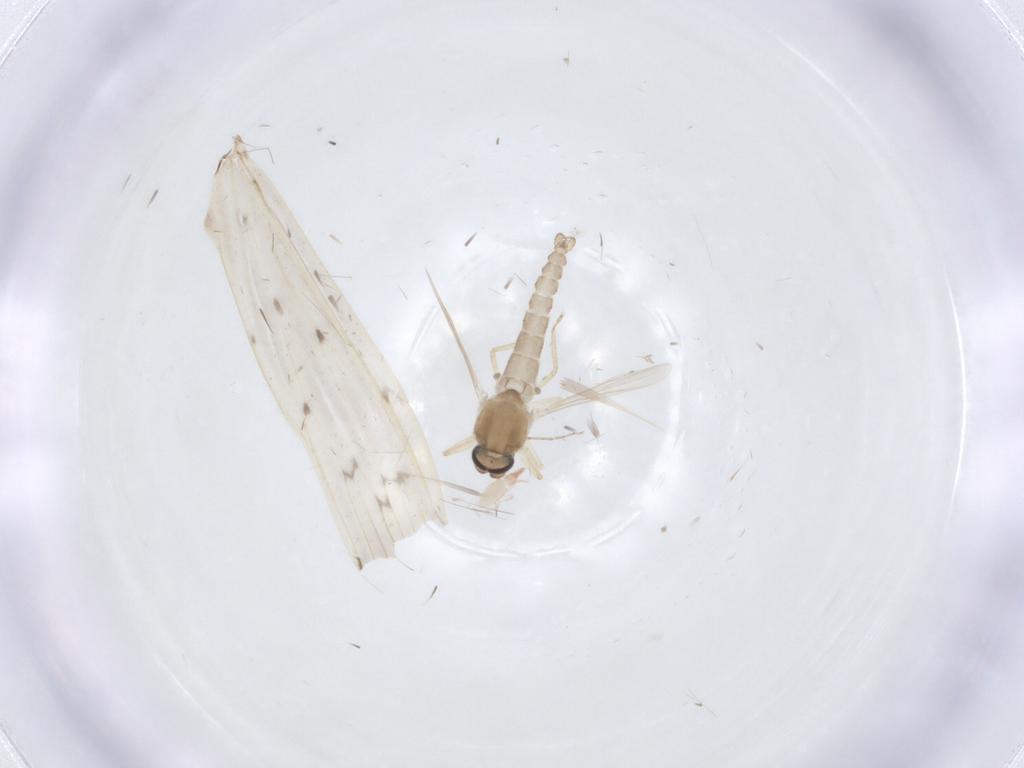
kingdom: Animalia
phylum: Arthropoda
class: Insecta
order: Diptera
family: Ceratopogonidae
